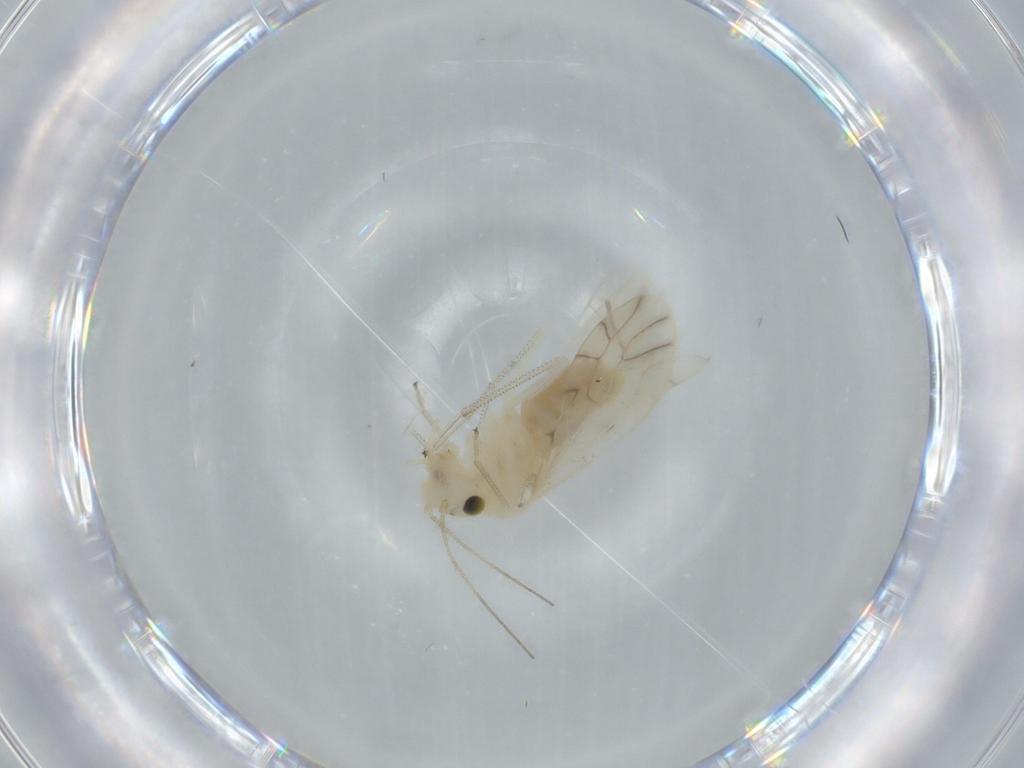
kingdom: Animalia
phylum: Arthropoda
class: Insecta
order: Psocodea
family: Caeciliusidae
